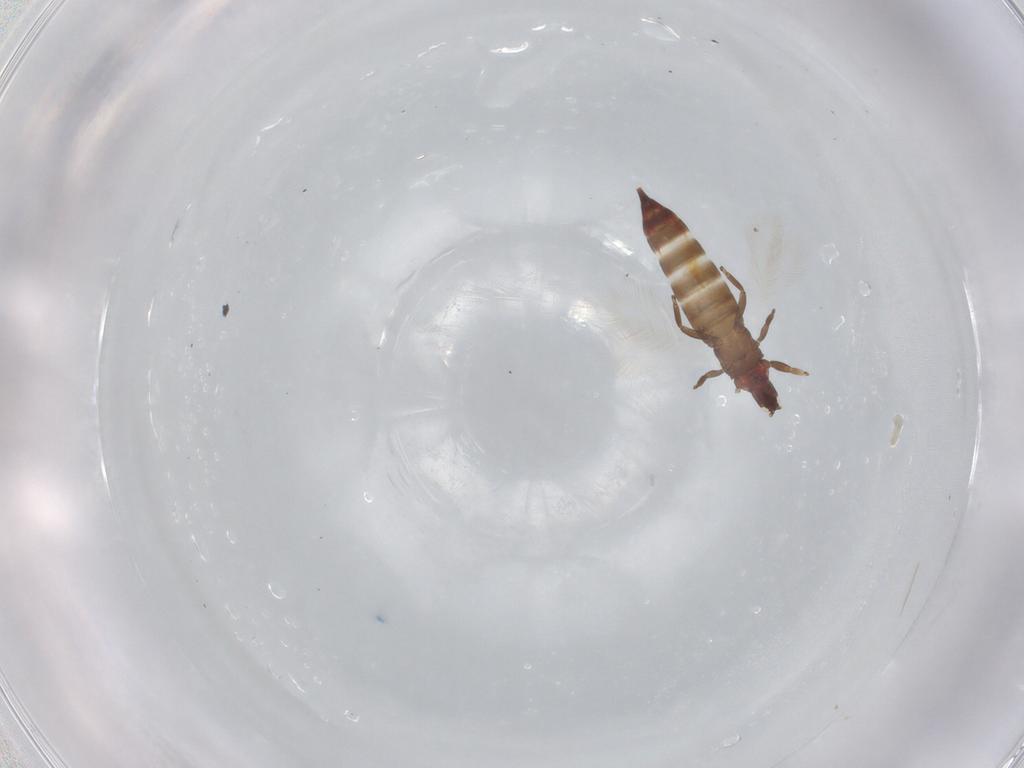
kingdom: Animalia
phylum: Arthropoda
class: Insecta
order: Thysanoptera
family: Phlaeothripidae
